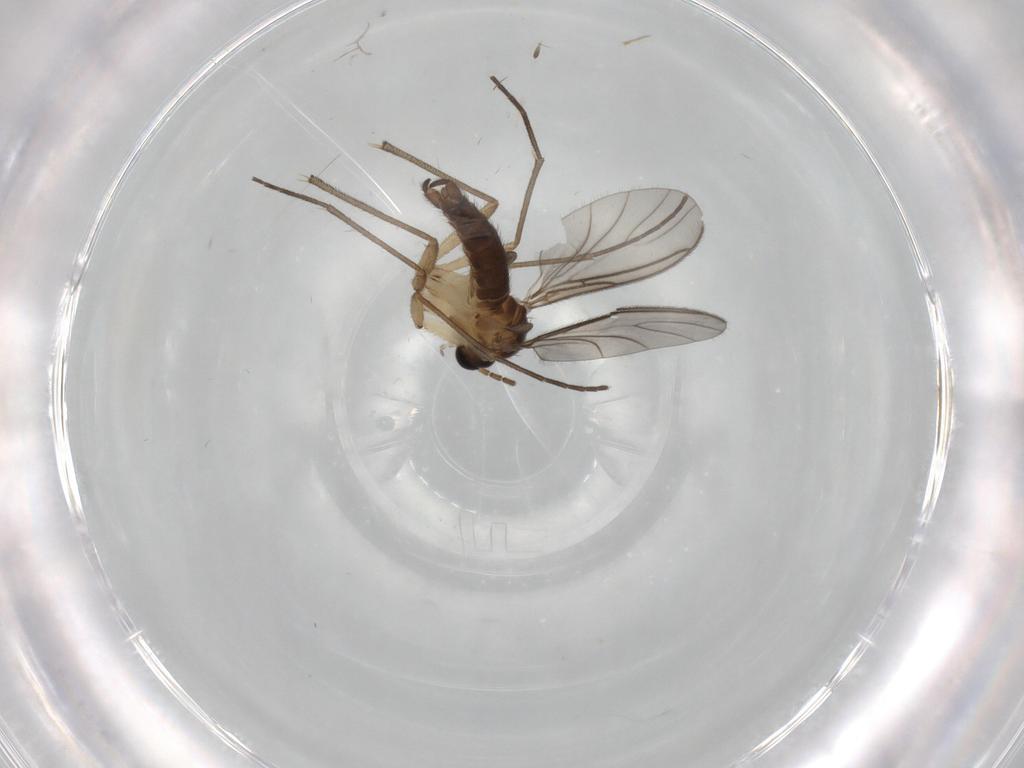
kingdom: Animalia
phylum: Arthropoda
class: Insecta
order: Diptera
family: Sciaridae
